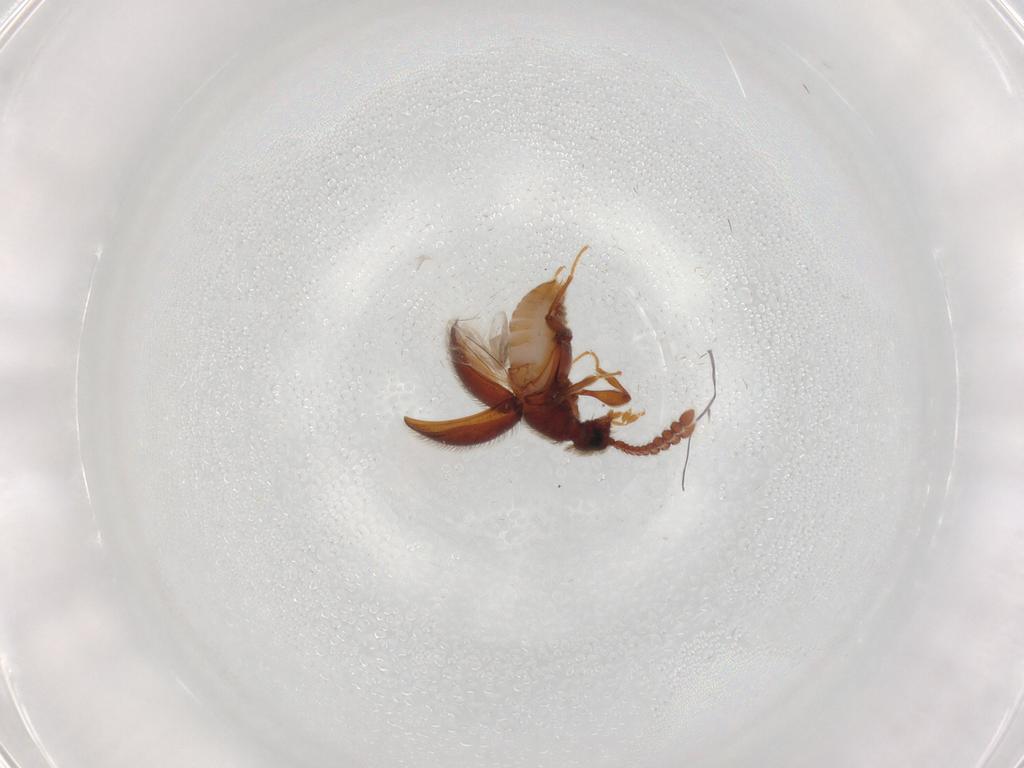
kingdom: Animalia
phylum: Arthropoda
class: Insecta
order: Coleoptera
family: Staphylinidae
